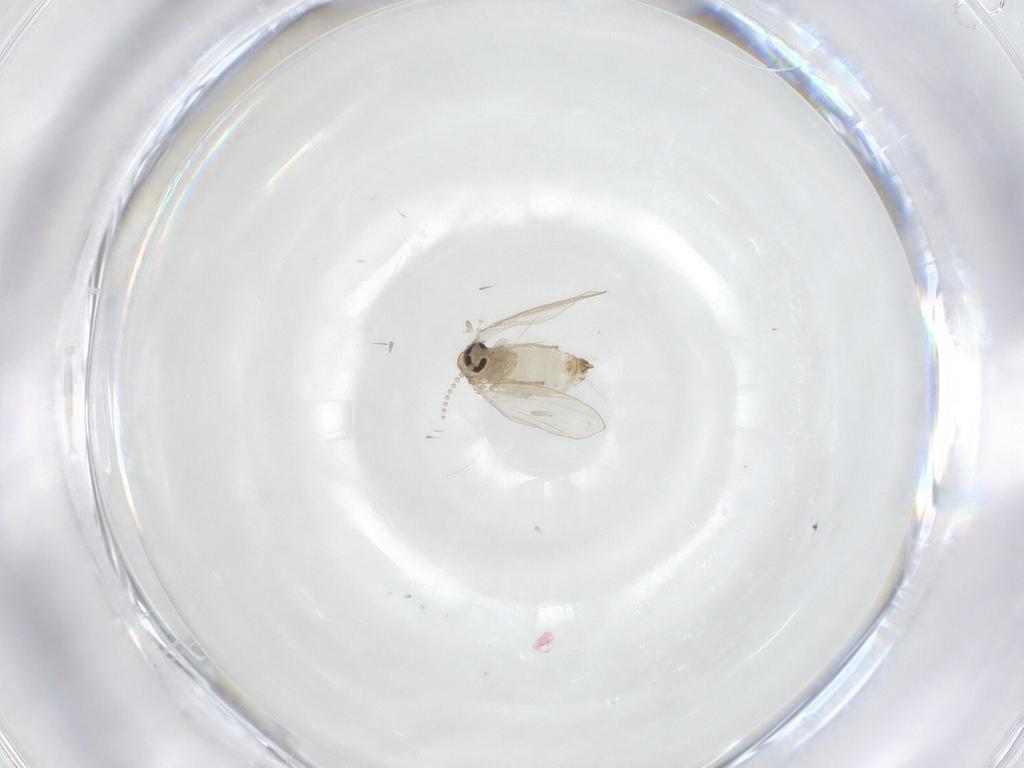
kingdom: Animalia
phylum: Arthropoda
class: Insecta
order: Diptera
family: Psychodidae
